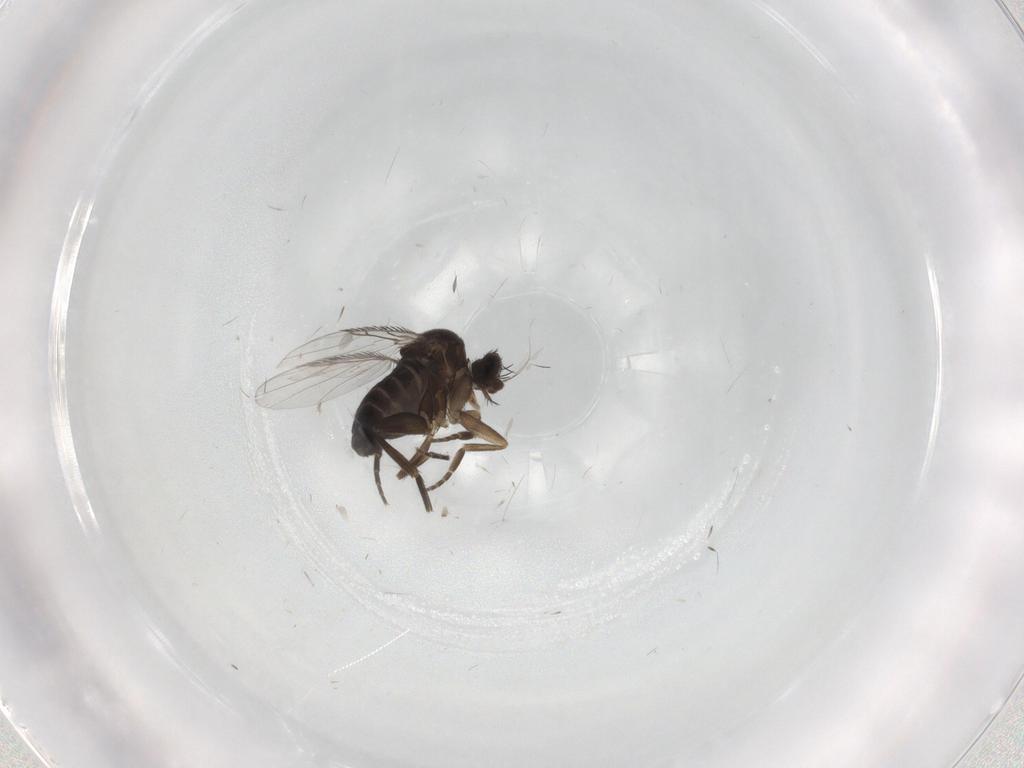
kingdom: Animalia
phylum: Arthropoda
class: Insecta
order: Diptera
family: Phoridae
